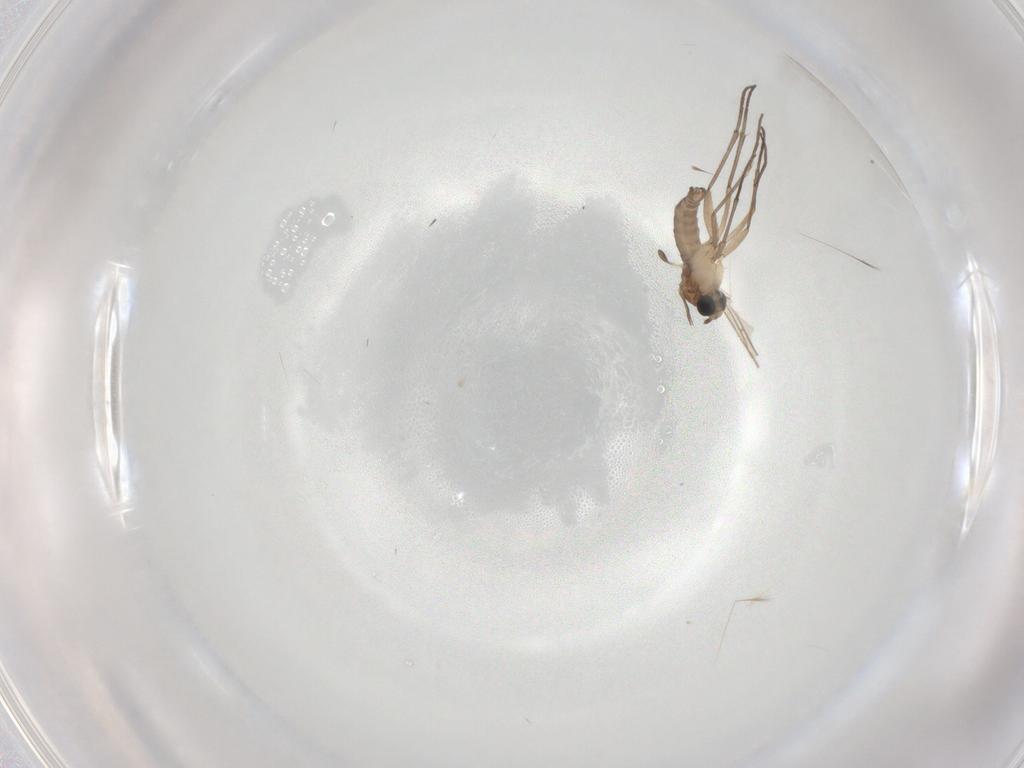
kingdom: Animalia
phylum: Arthropoda
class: Insecta
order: Diptera
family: Sciaridae
